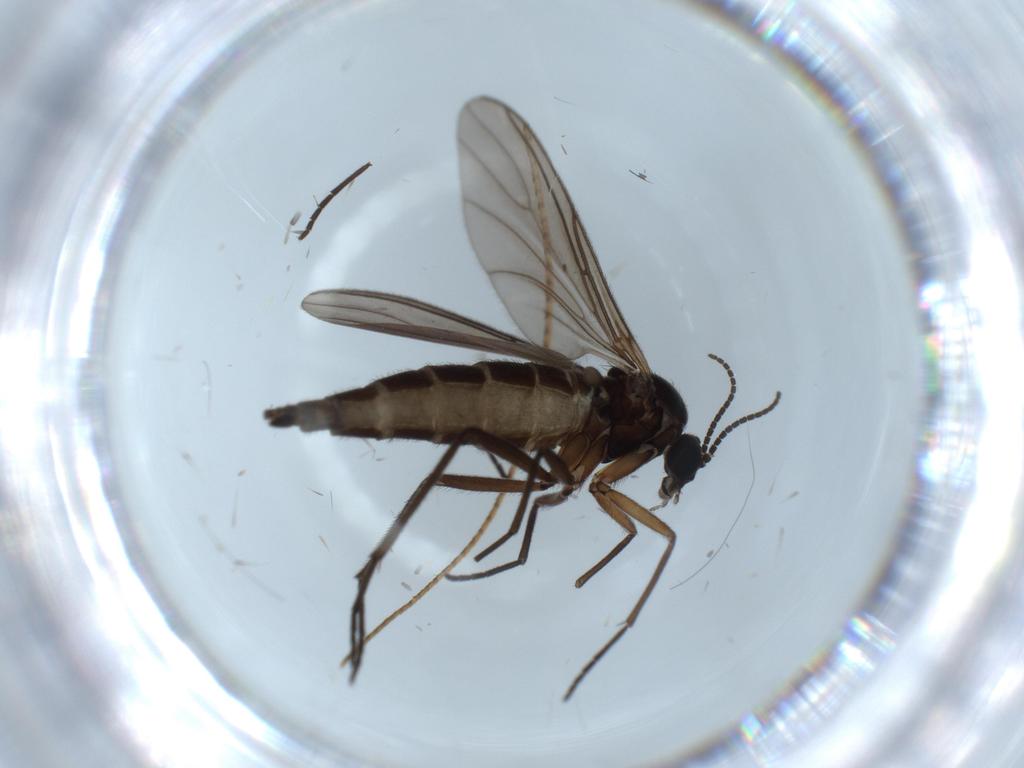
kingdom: Animalia
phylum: Arthropoda
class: Insecta
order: Diptera
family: Sciaridae
